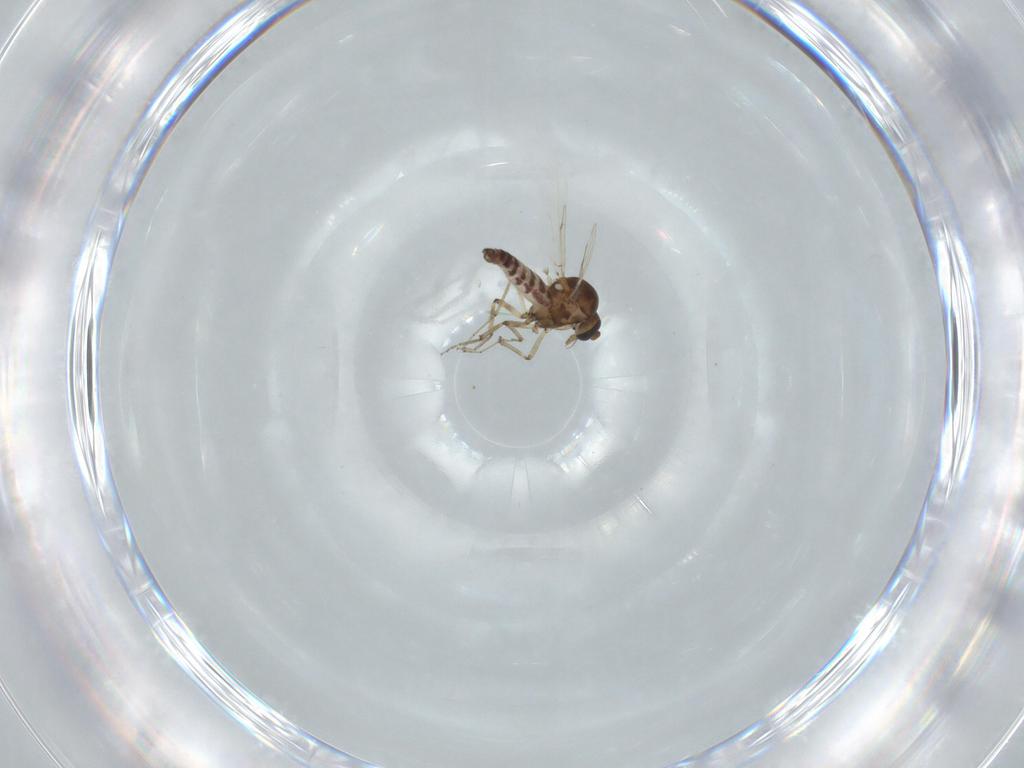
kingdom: Animalia
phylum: Arthropoda
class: Insecta
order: Diptera
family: Ceratopogonidae
